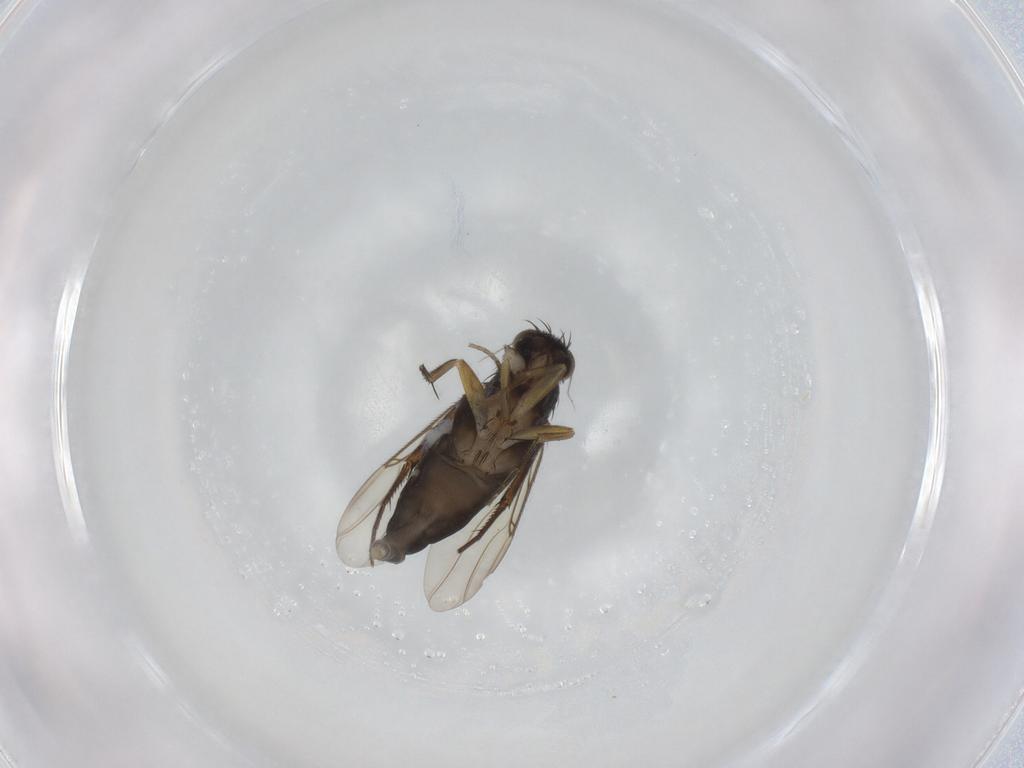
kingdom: Animalia
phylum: Arthropoda
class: Insecta
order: Diptera
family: Phoridae
